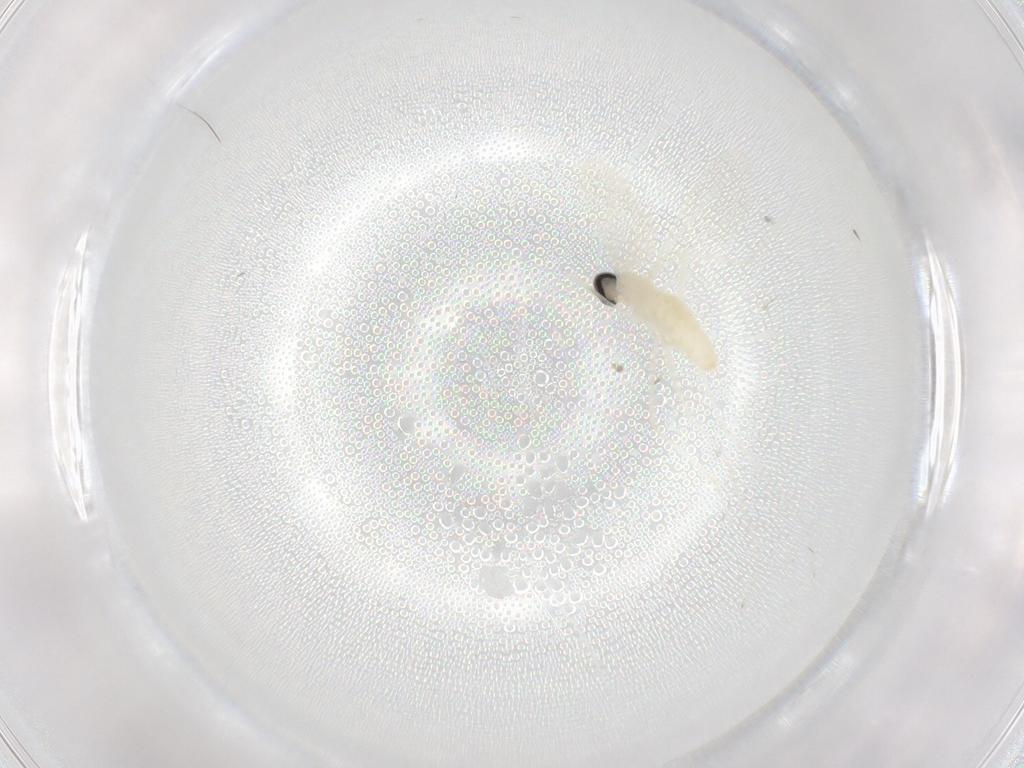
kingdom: Animalia
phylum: Arthropoda
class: Insecta
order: Diptera
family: Cecidomyiidae
